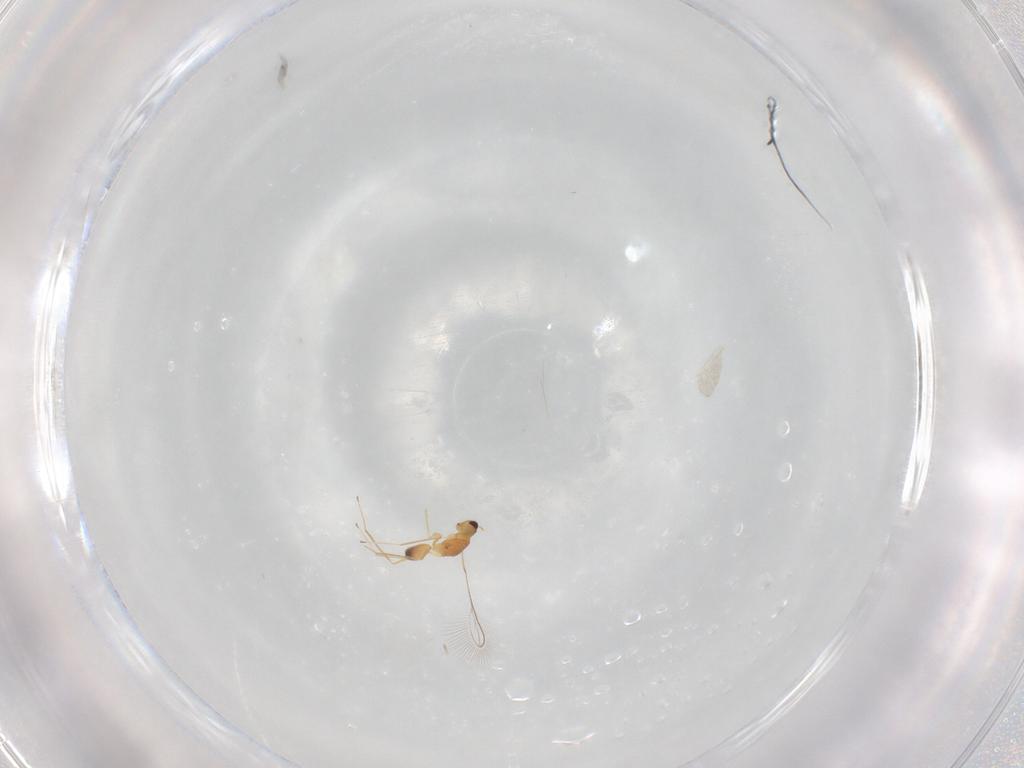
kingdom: Animalia
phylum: Arthropoda
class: Insecta
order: Hymenoptera
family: Mymaridae
